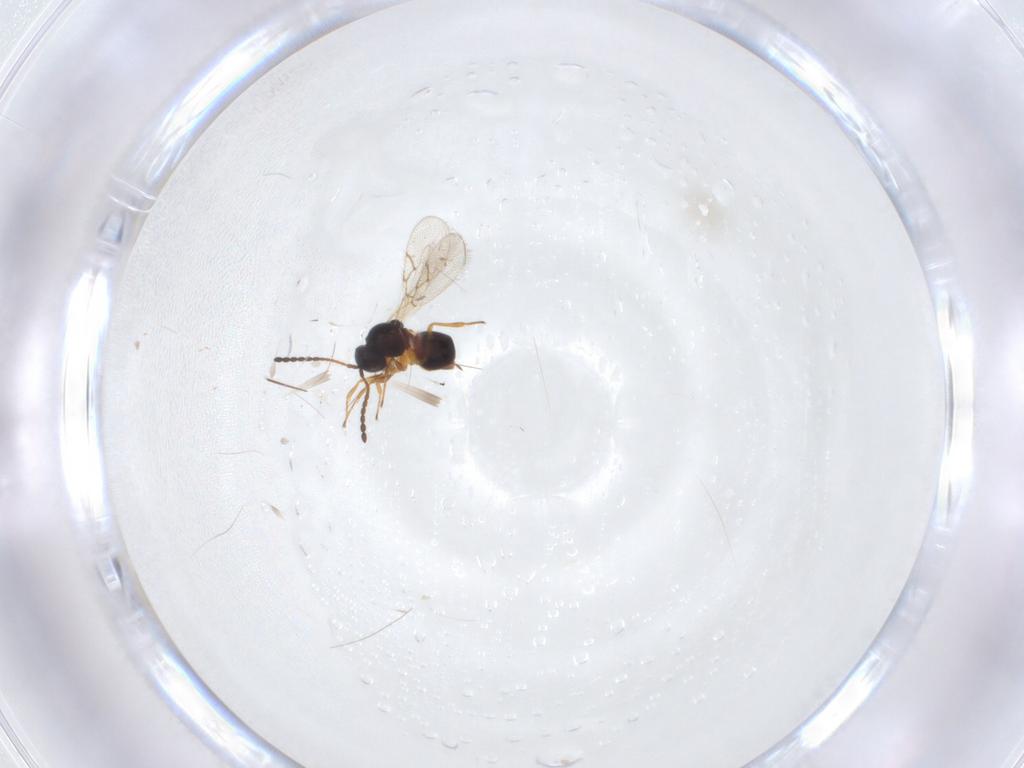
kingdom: Animalia
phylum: Arthropoda
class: Insecta
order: Hymenoptera
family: Figitidae
